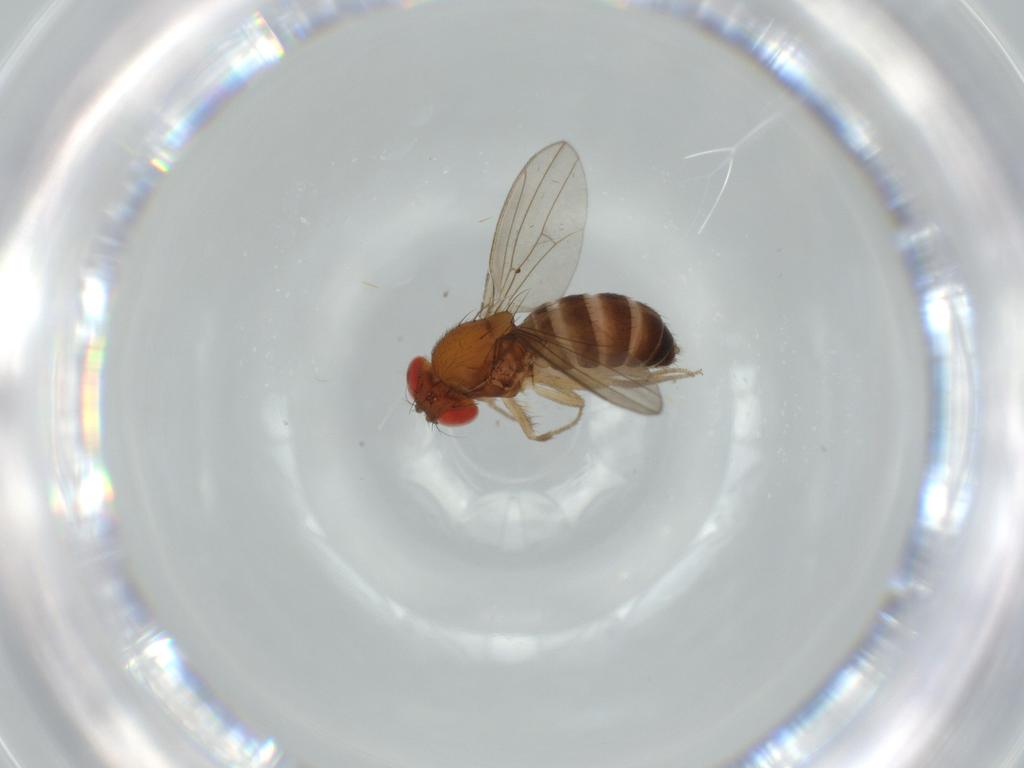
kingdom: Animalia
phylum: Arthropoda
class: Insecta
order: Diptera
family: Drosophilidae
